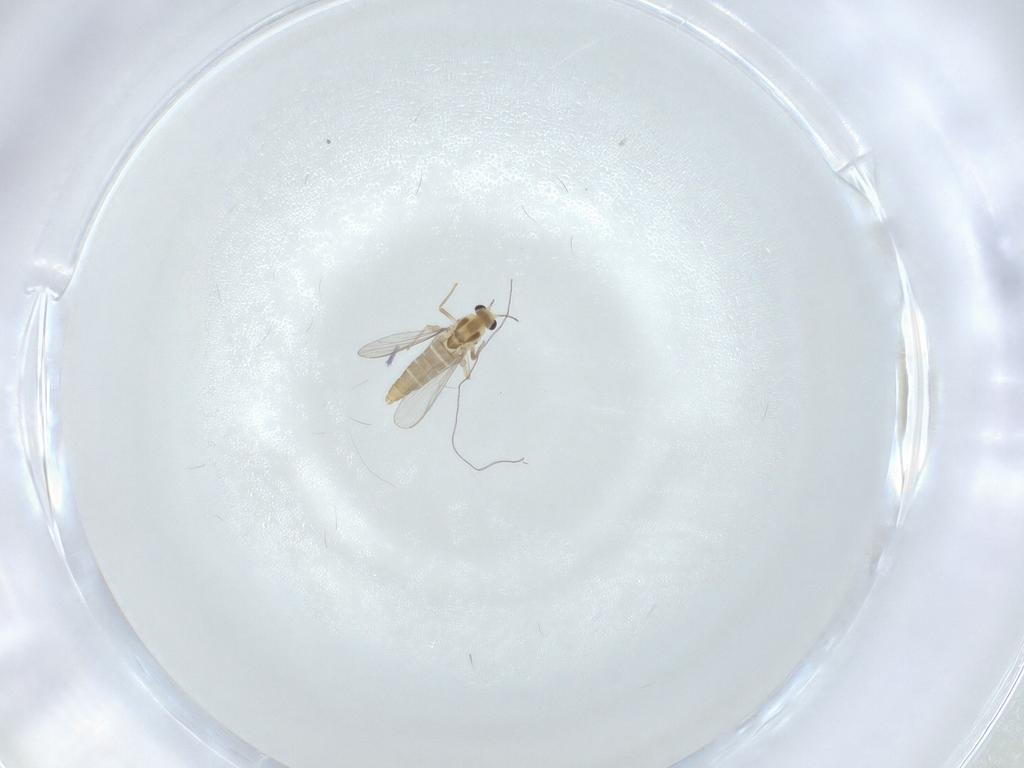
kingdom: Animalia
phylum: Arthropoda
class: Insecta
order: Diptera
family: Chironomidae
